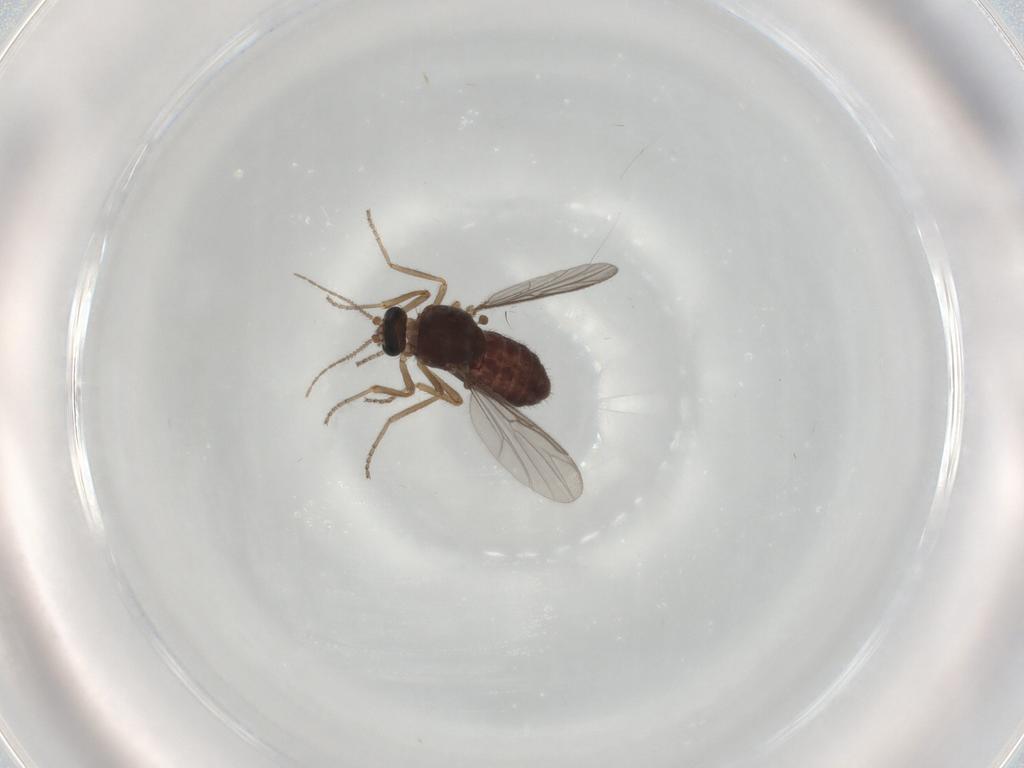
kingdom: Animalia
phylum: Arthropoda
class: Insecta
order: Diptera
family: Ceratopogonidae
